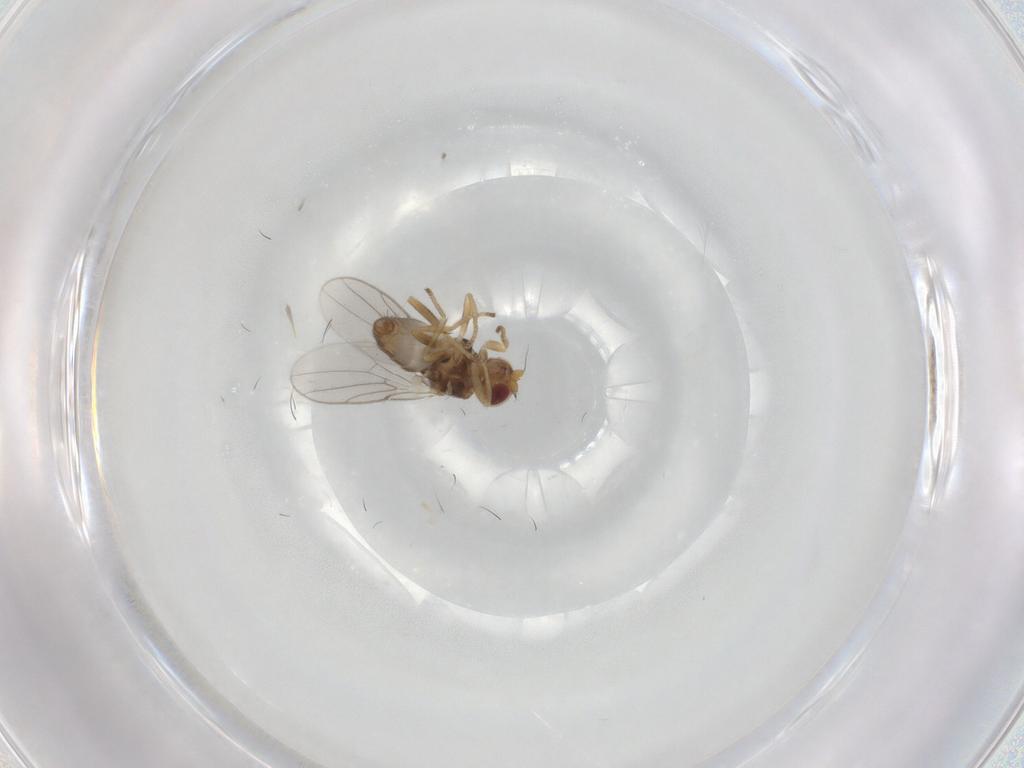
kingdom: Animalia
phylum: Arthropoda
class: Insecta
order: Diptera
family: Chloropidae
